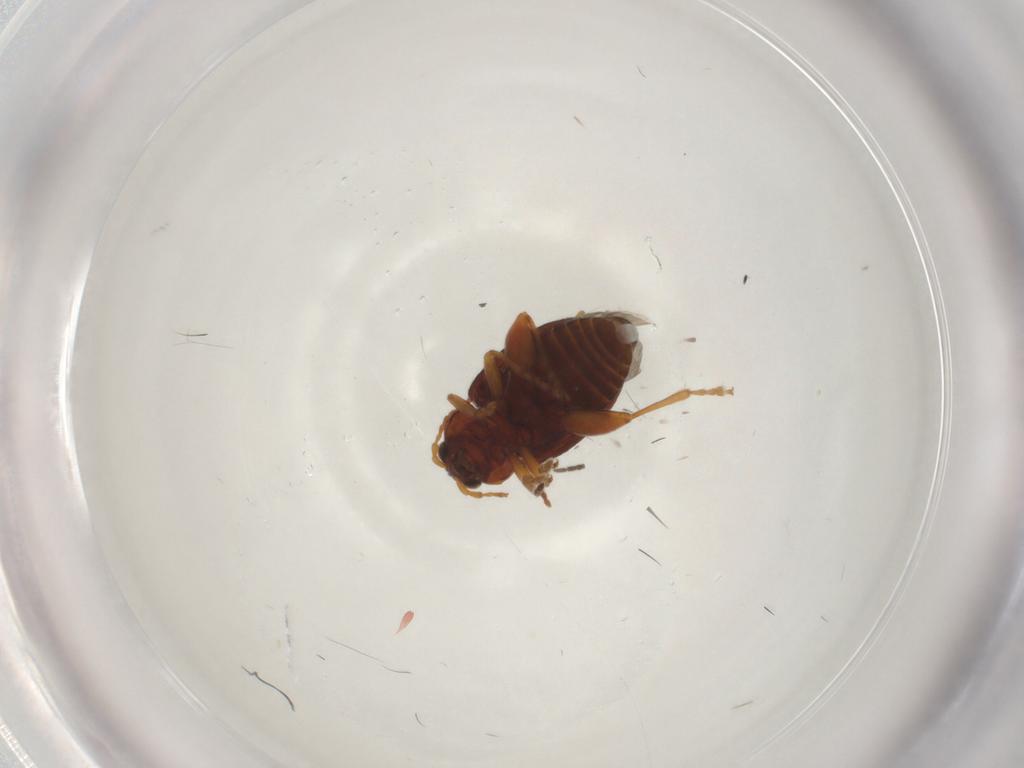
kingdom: Animalia
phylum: Arthropoda
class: Insecta
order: Coleoptera
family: Chrysomelidae
